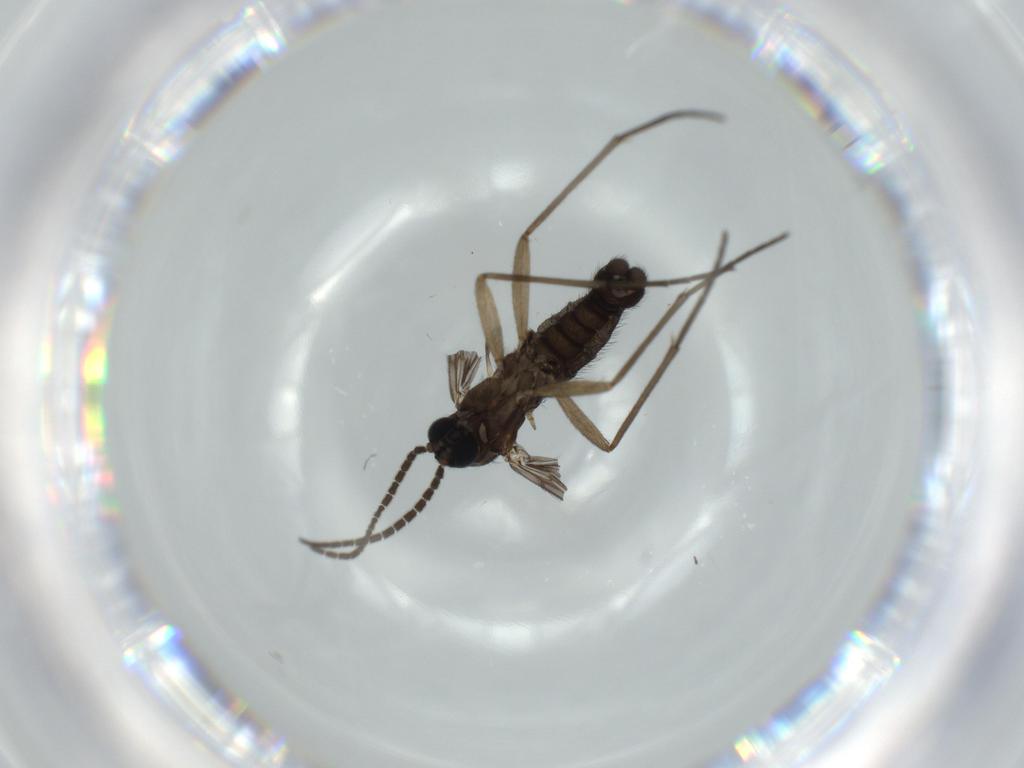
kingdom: Animalia
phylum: Arthropoda
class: Insecta
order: Diptera
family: Sciaridae
